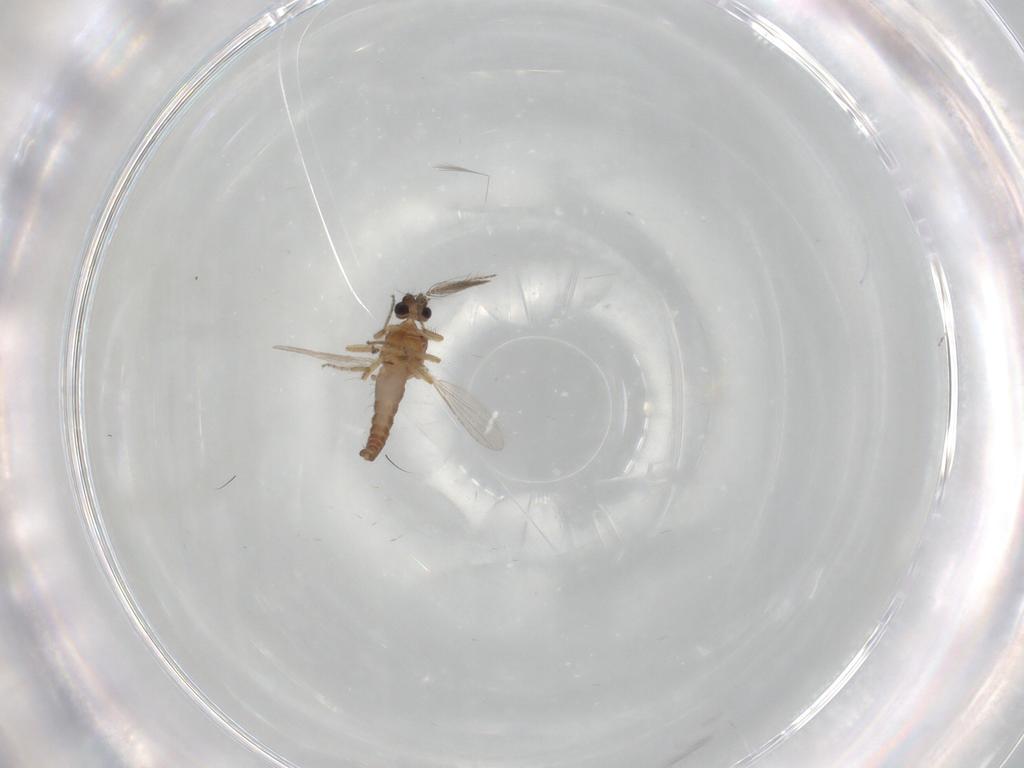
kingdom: Animalia
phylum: Arthropoda
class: Insecta
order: Diptera
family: Ceratopogonidae
